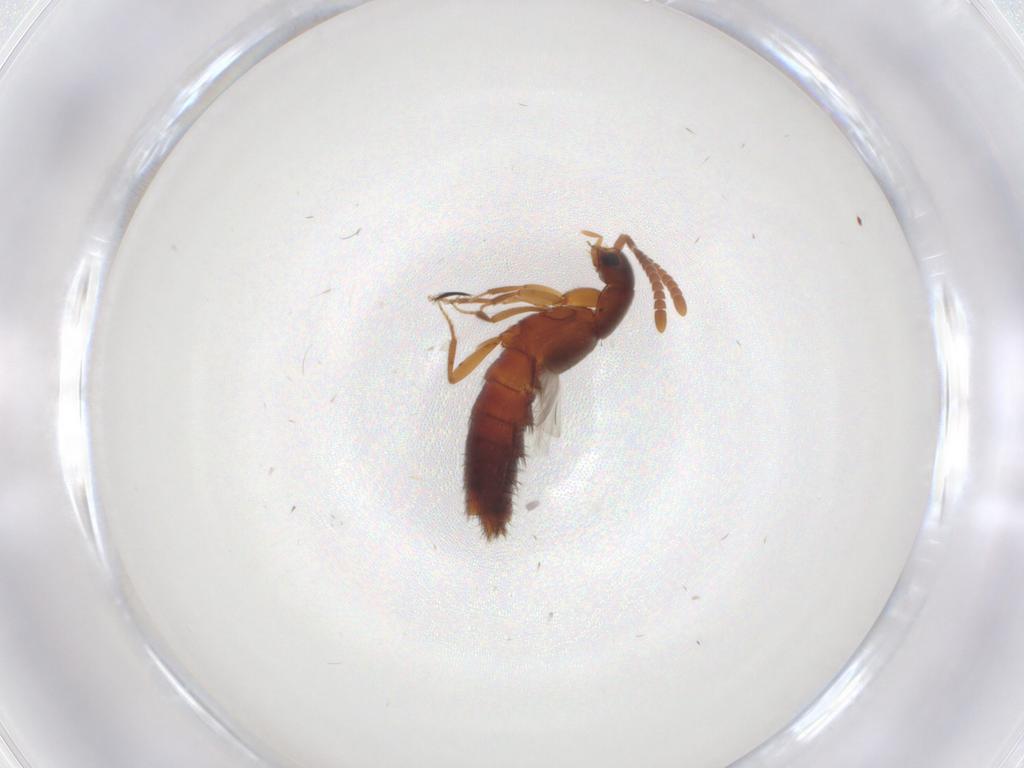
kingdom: Animalia
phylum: Arthropoda
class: Insecta
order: Coleoptera
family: Staphylinidae
